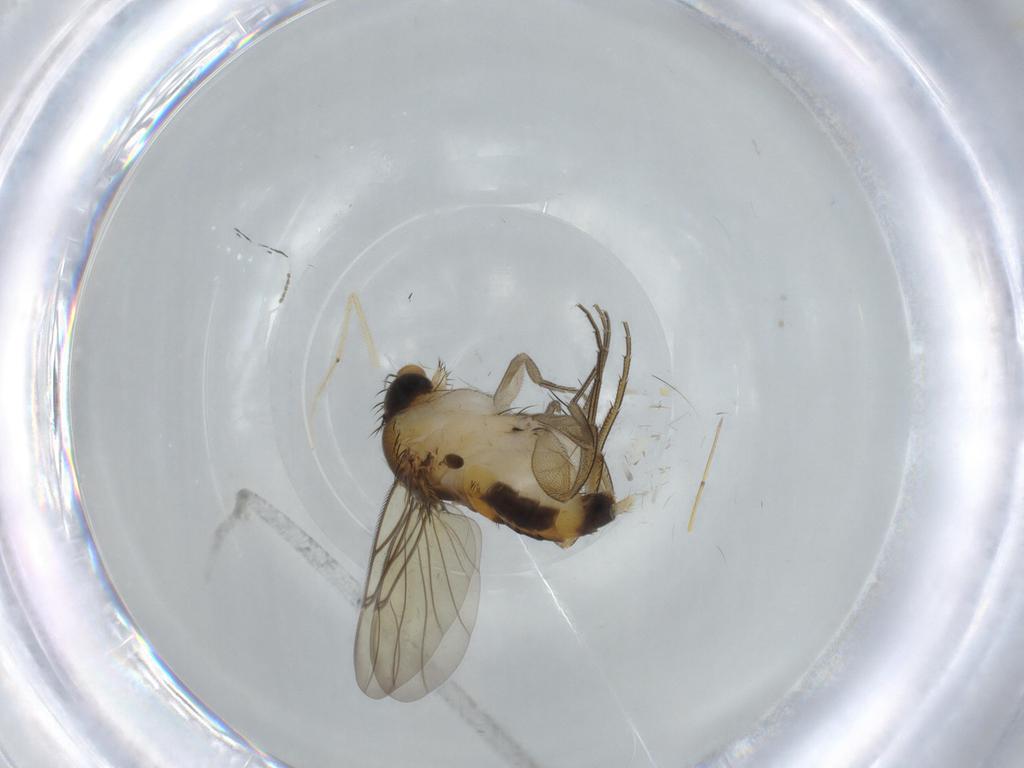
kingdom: Animalia
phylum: Arthropoda
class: Insecta
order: Diptera
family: Phoridae
